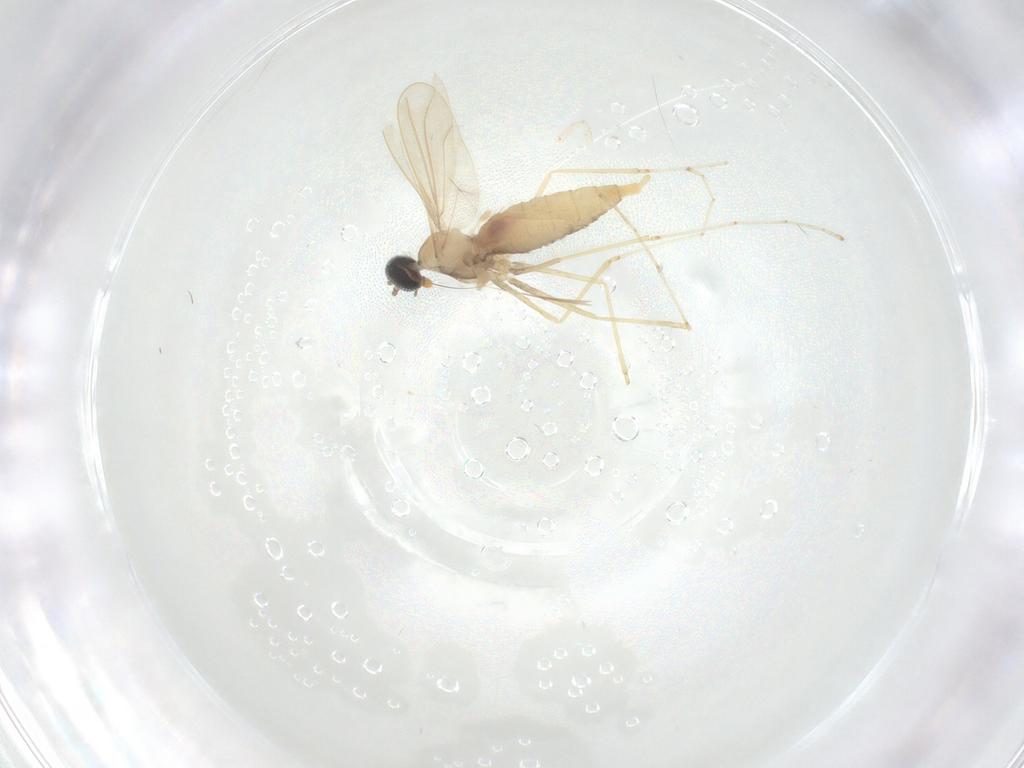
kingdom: Animalia
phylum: Arthropoda
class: Insecta
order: Diptera
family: Cecidomyiidae
